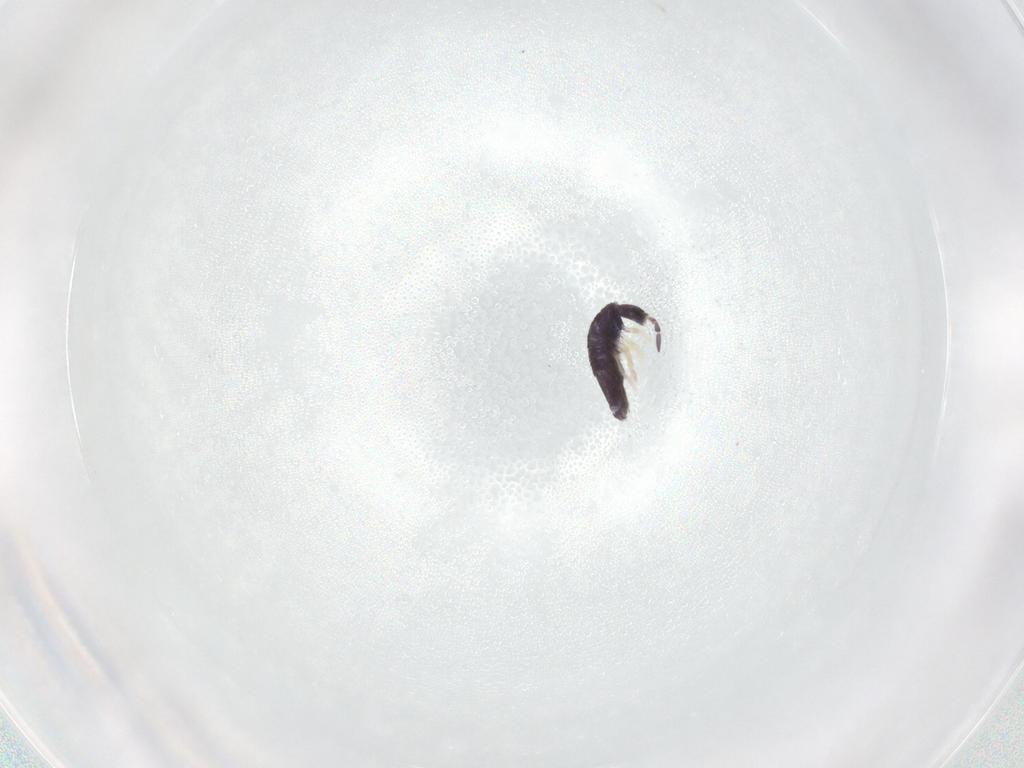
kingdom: Animalia
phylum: Arthropoda
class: Collembola
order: Entomobryomorpha
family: Entomobryidae
